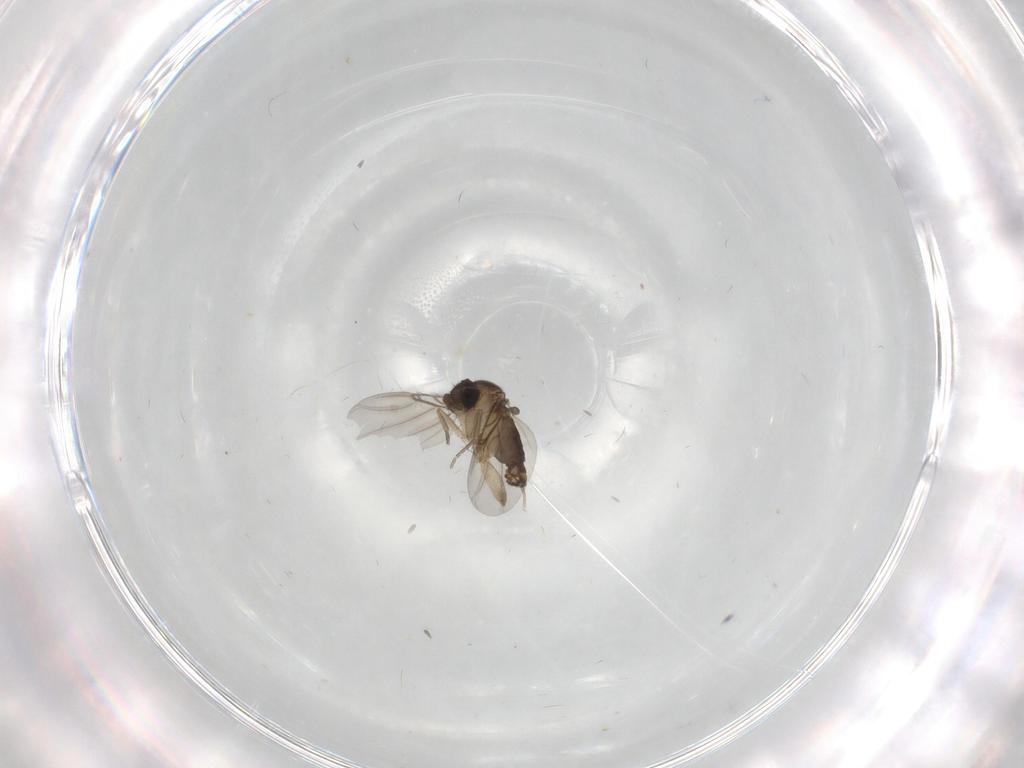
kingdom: Animalia
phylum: Arthropoda
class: Insecta
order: Diptera
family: Phoridae
